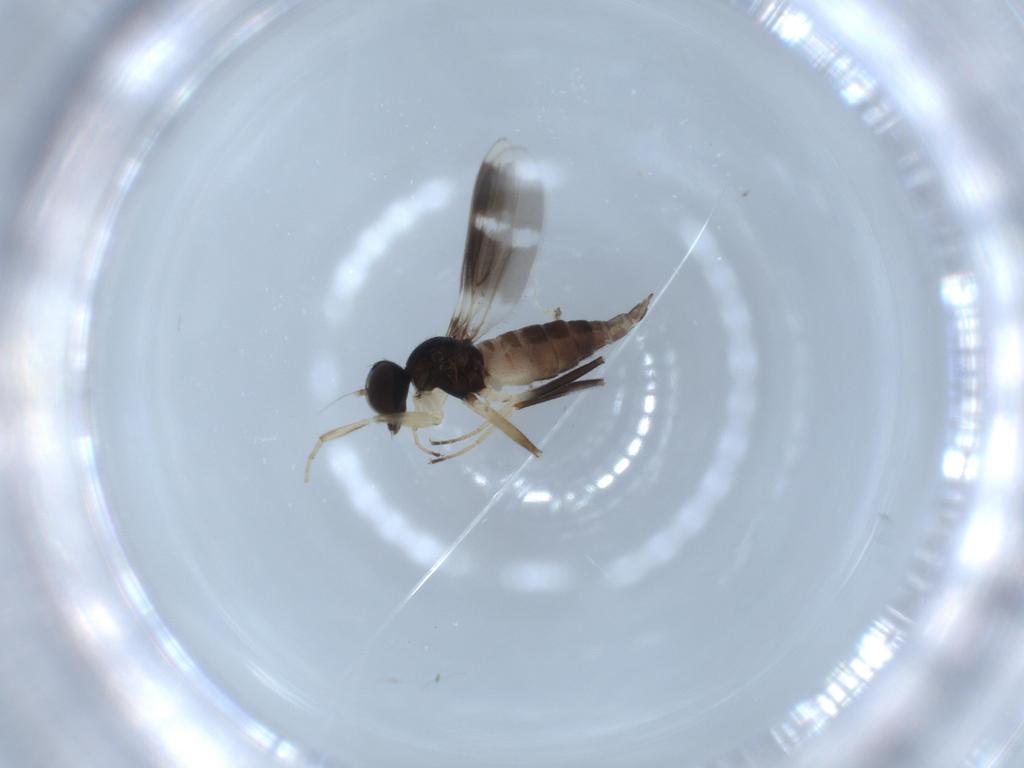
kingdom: Animalia
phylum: Arthropoda
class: Insecta
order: Diptera
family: Hybotidae
